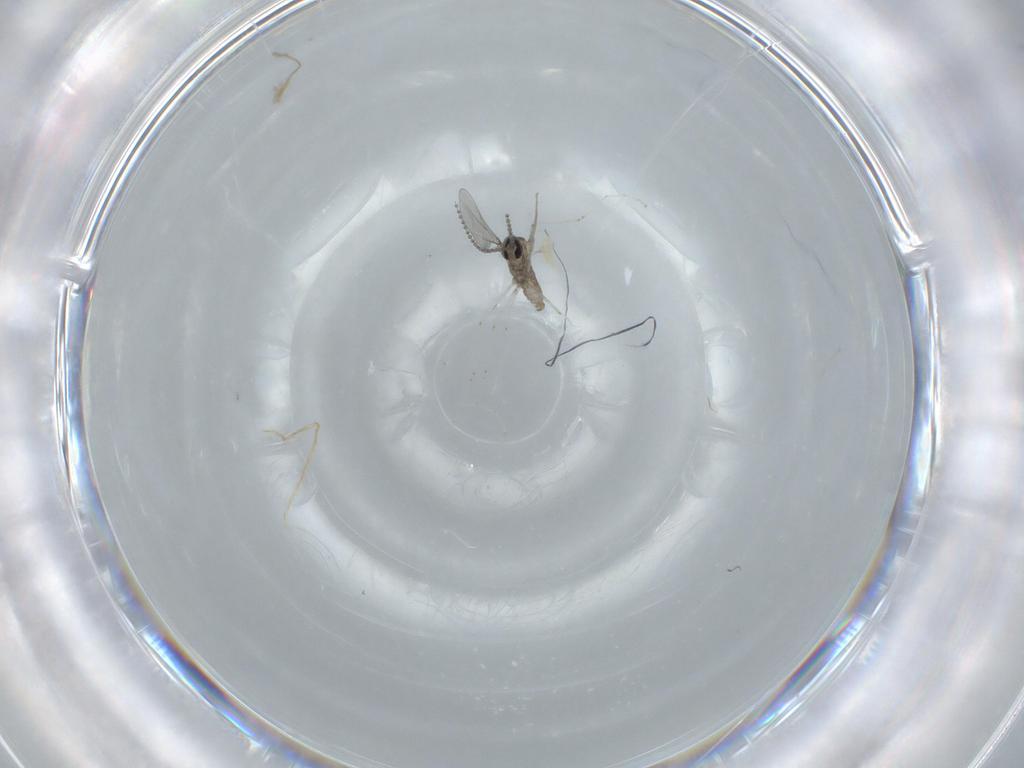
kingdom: Animalia
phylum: Arthropoda
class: Insecta
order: Diptera
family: Cecidomyiidae
